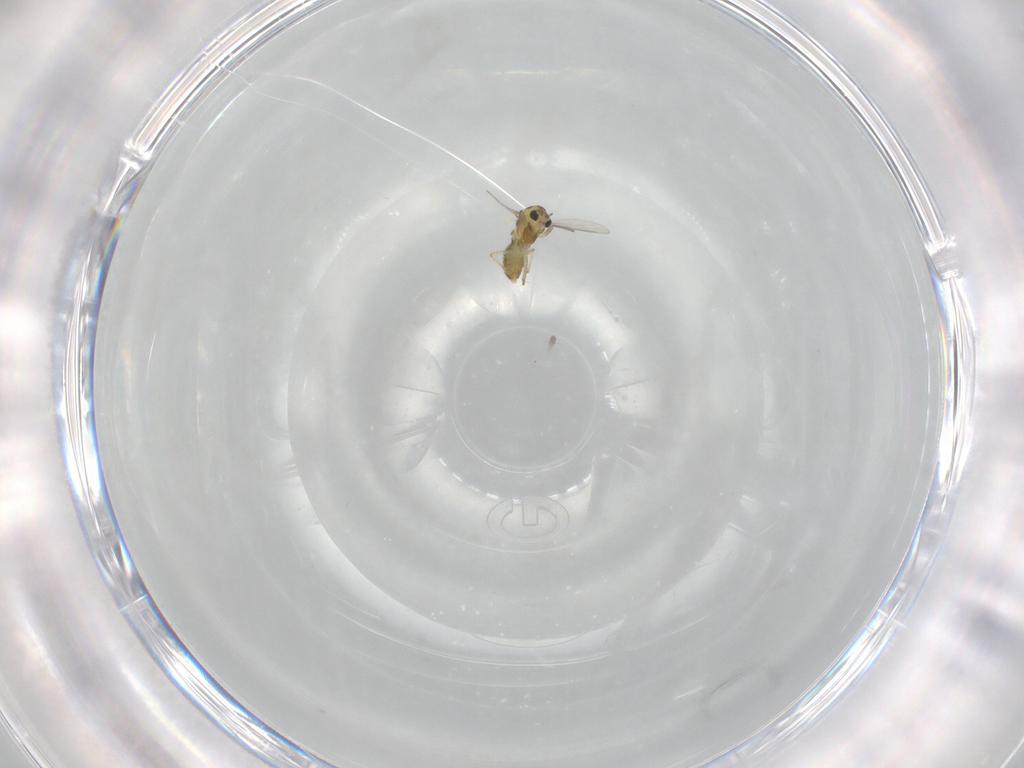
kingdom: Animalia
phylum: Arthropoda
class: Insecta
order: Diptera
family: Chironomidae
